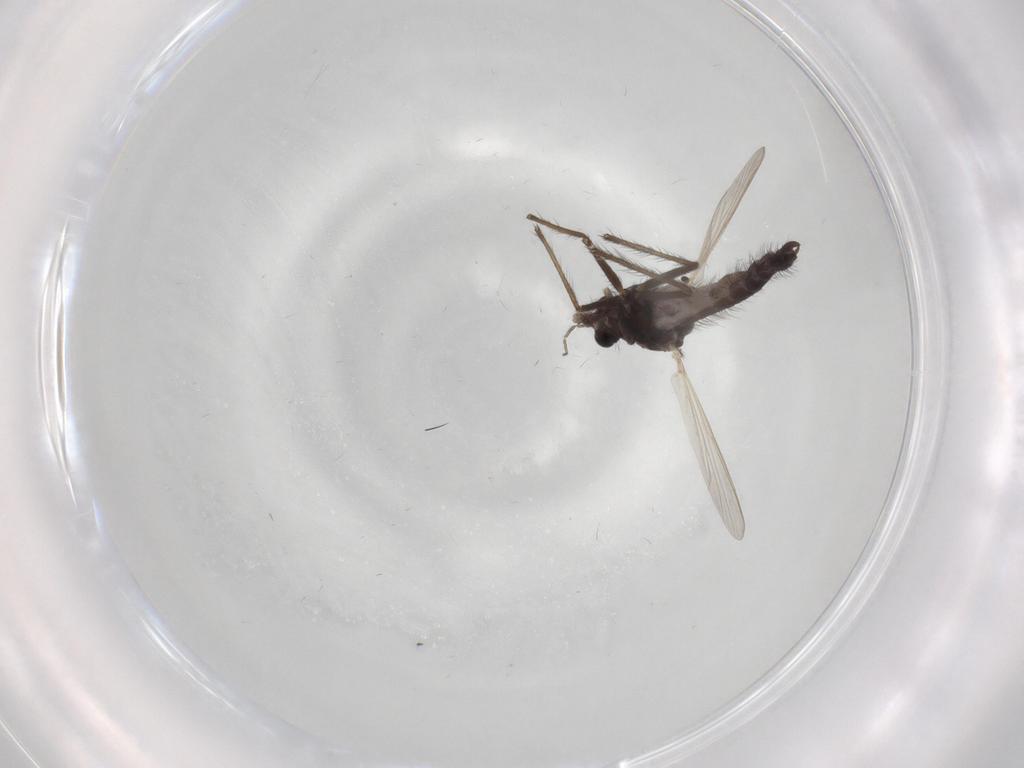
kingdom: Animalia
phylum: Arthropoda
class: Insecta
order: Diptera
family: Chironomidae
